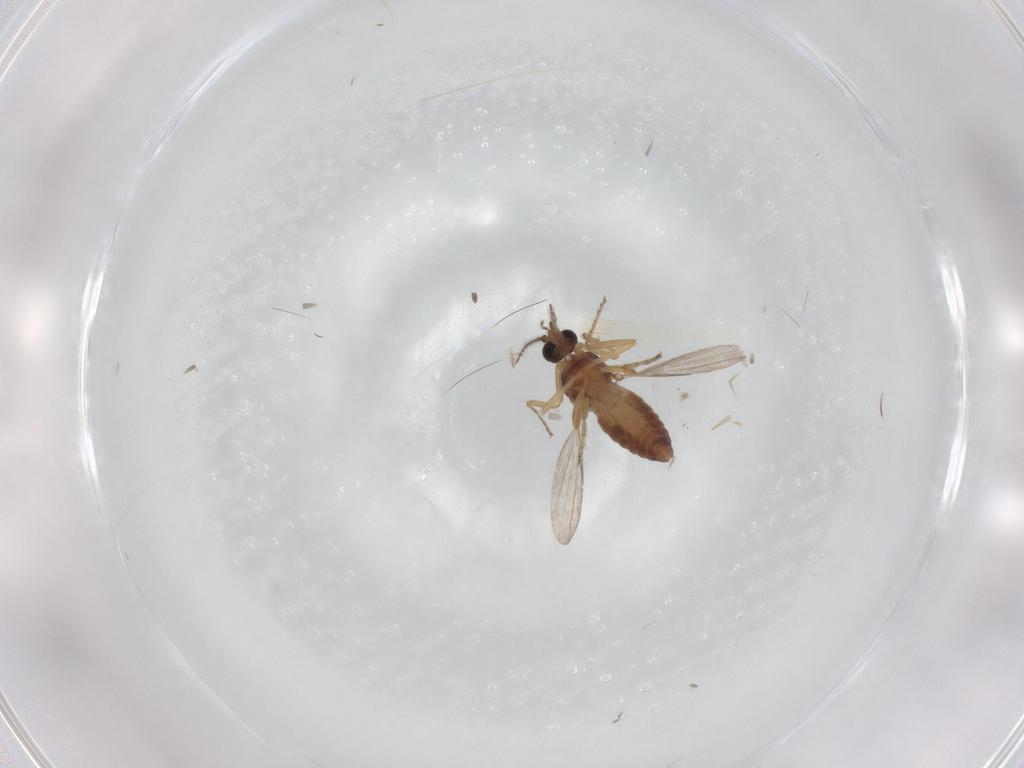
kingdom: Animalia
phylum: Arthropoda
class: Insecta
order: Diptera
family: Ceratopogonidae
